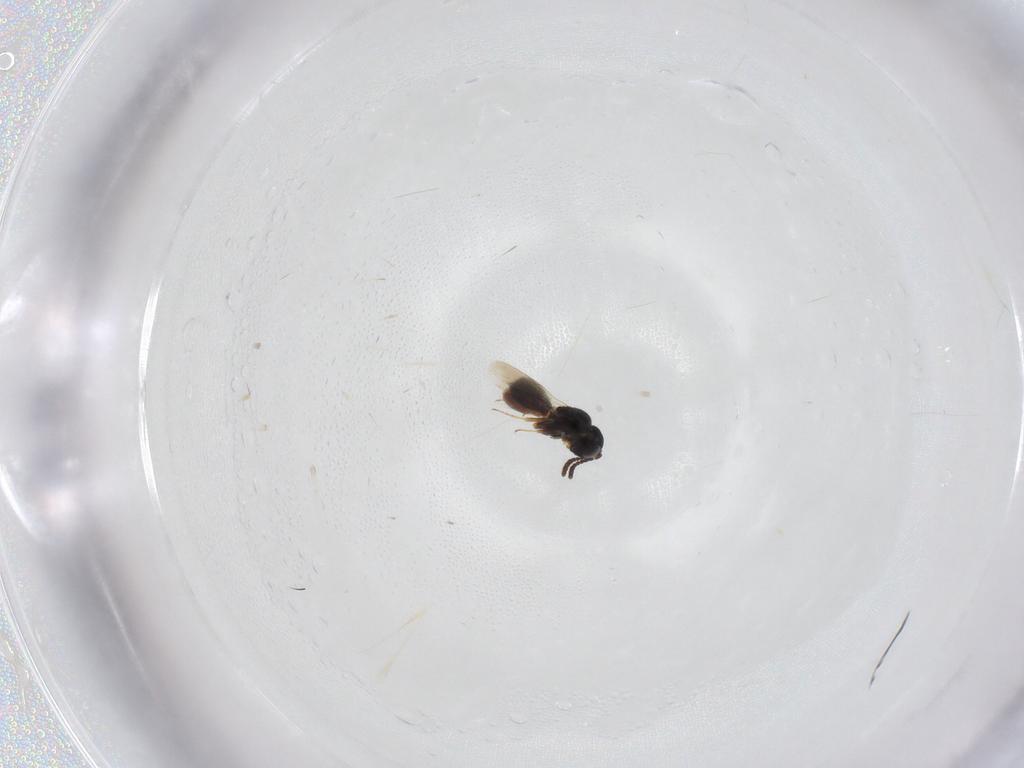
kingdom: Animalia
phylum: Arthropoda
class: Insecta
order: Hymenoptera
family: Scelionidae
